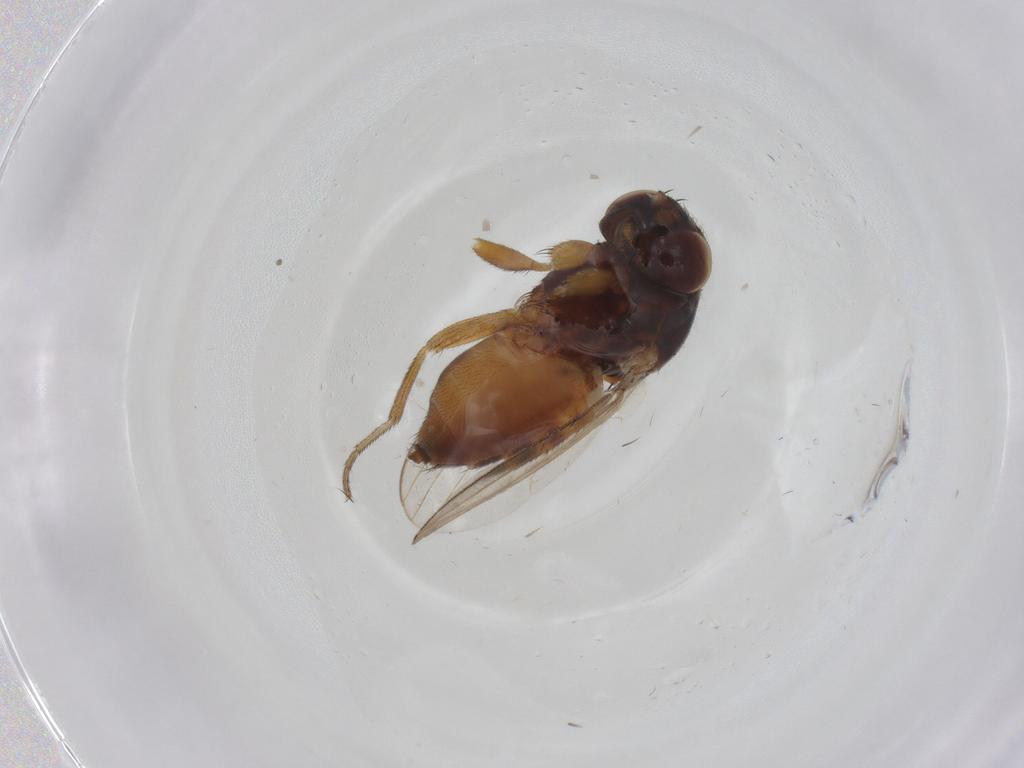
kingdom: Animalia
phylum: Arthropoda
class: Insecta
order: Diptera
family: Milichiidae
